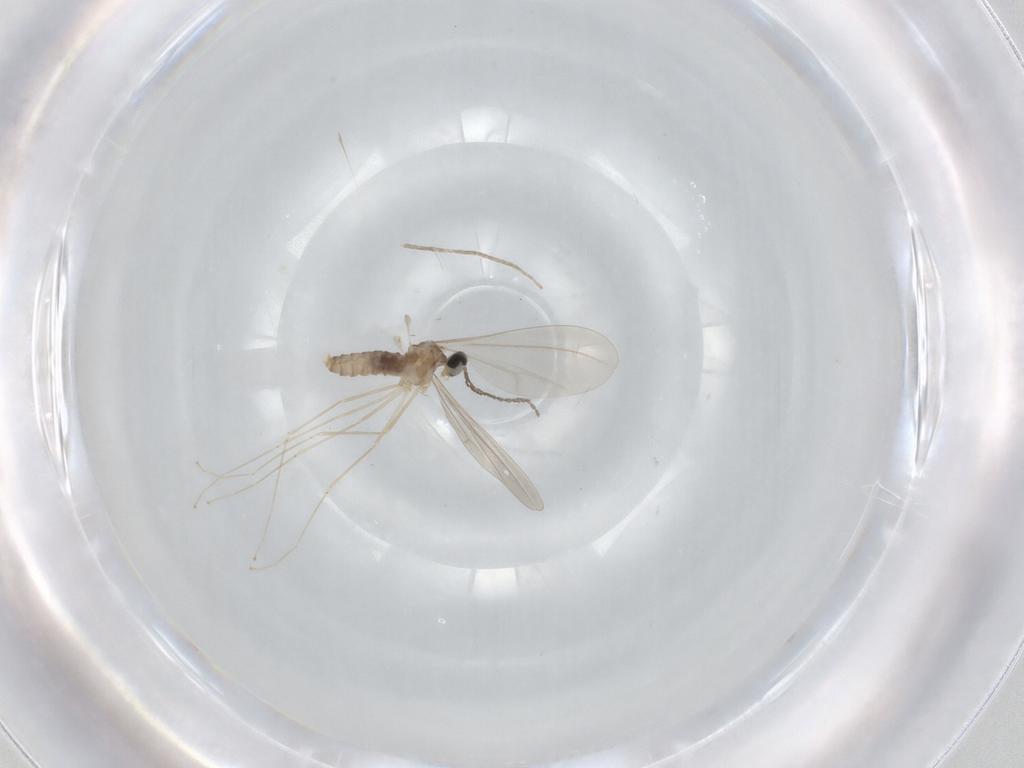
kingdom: Animalia
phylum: Arthropoda
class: Insecta
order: Diptera
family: Cecidomyiidae
